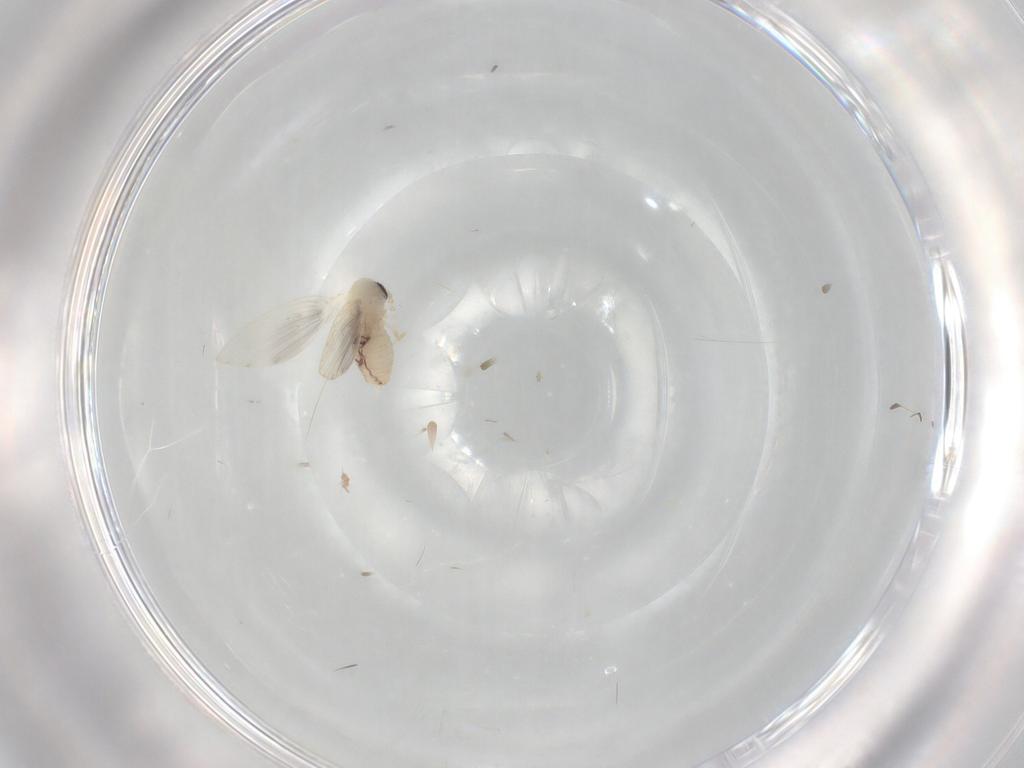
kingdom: Animalia
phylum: Arthropoda
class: Insecta
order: Diptera
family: Psychodidae
